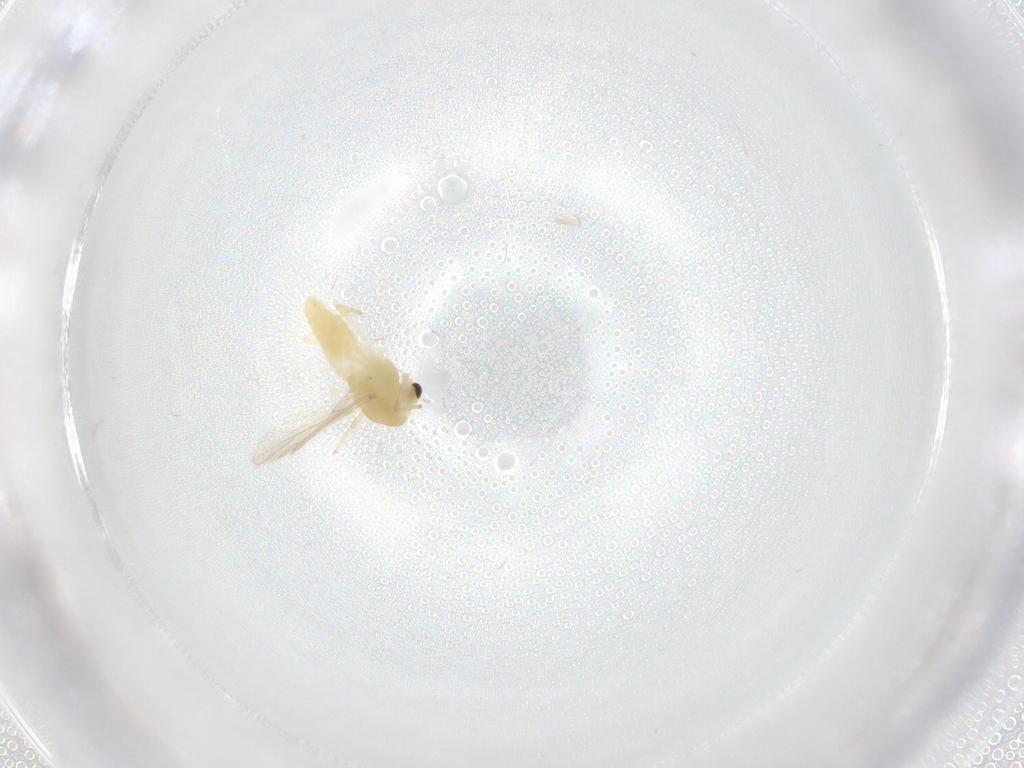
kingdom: Animalia
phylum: Arthropoda
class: Insecta
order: Diptera
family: Chironomidae
